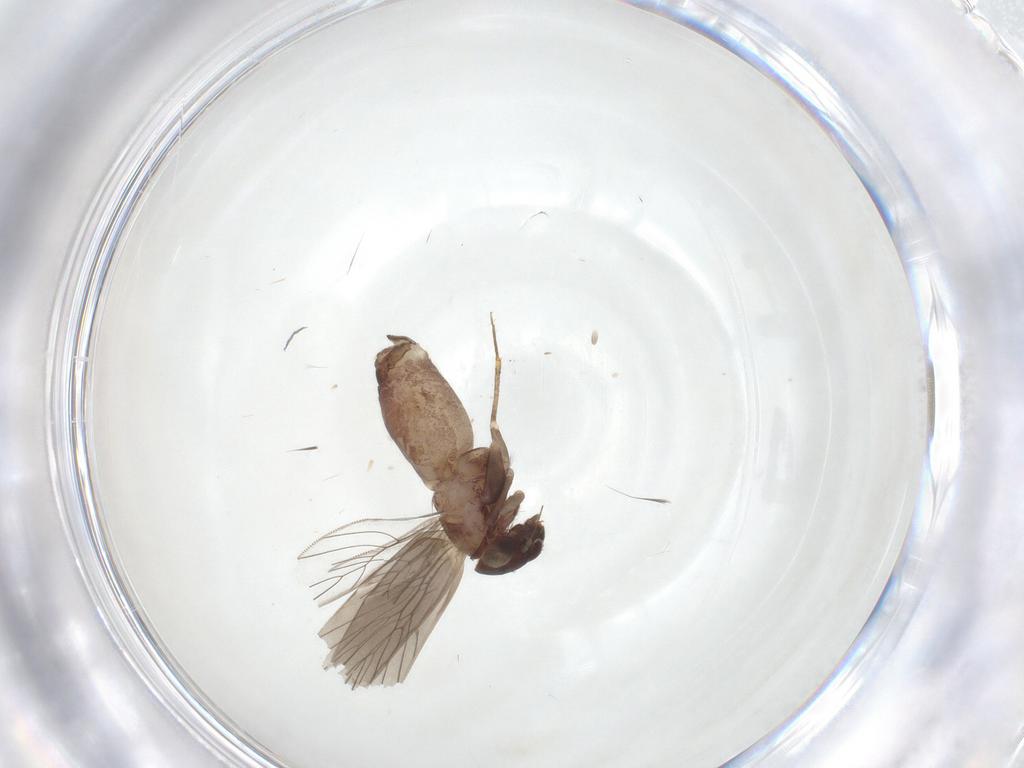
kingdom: Animalia
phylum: Arthropoda
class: Insecta
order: Psocodea
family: Lepidopsocidae
